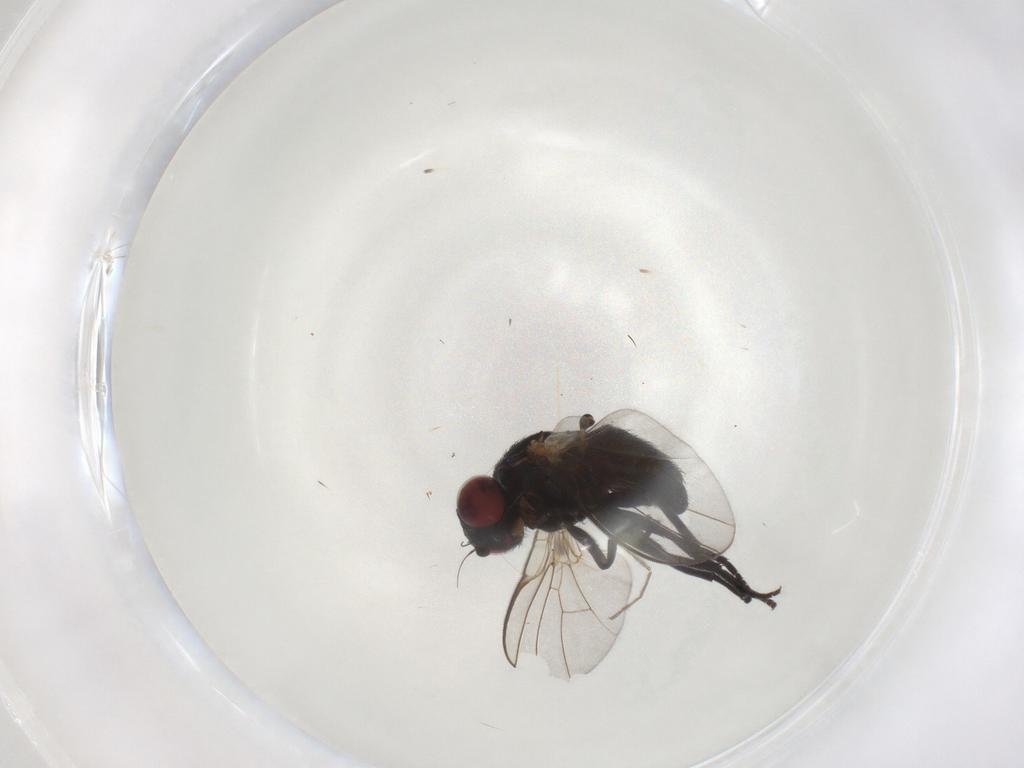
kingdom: Animalia
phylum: Arthropoda
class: Insecta
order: Diptera
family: Agromyzidae
